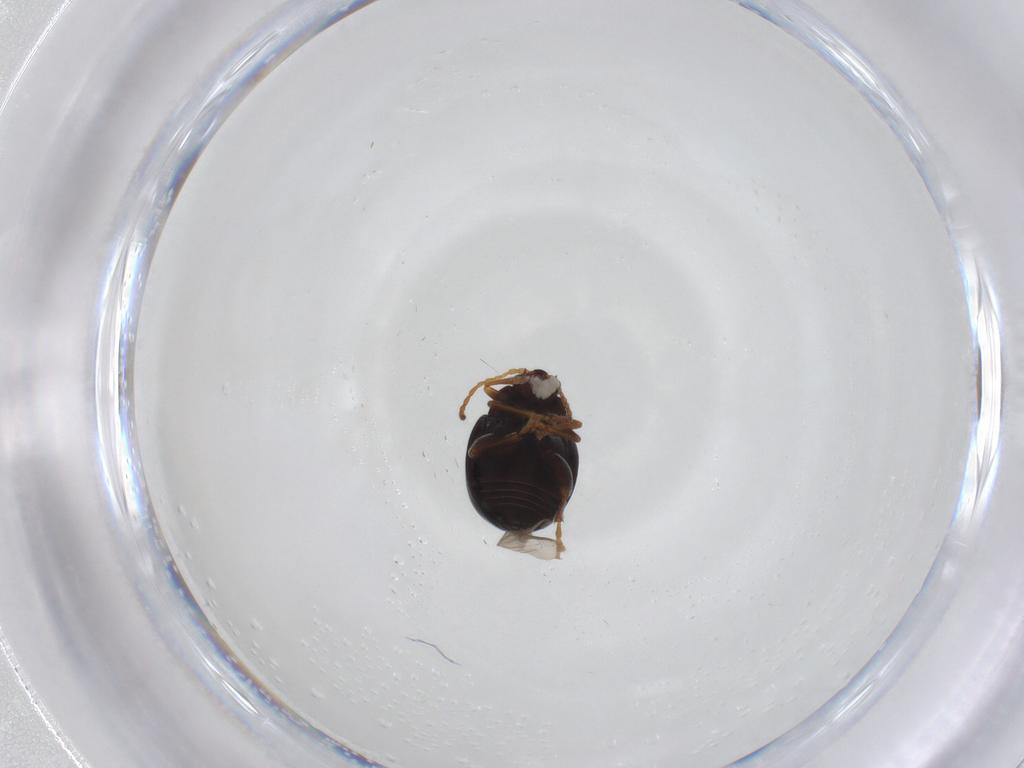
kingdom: Animalia
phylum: Arthropoda
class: Insecta
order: Coleoptera
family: Chrysomelidae
